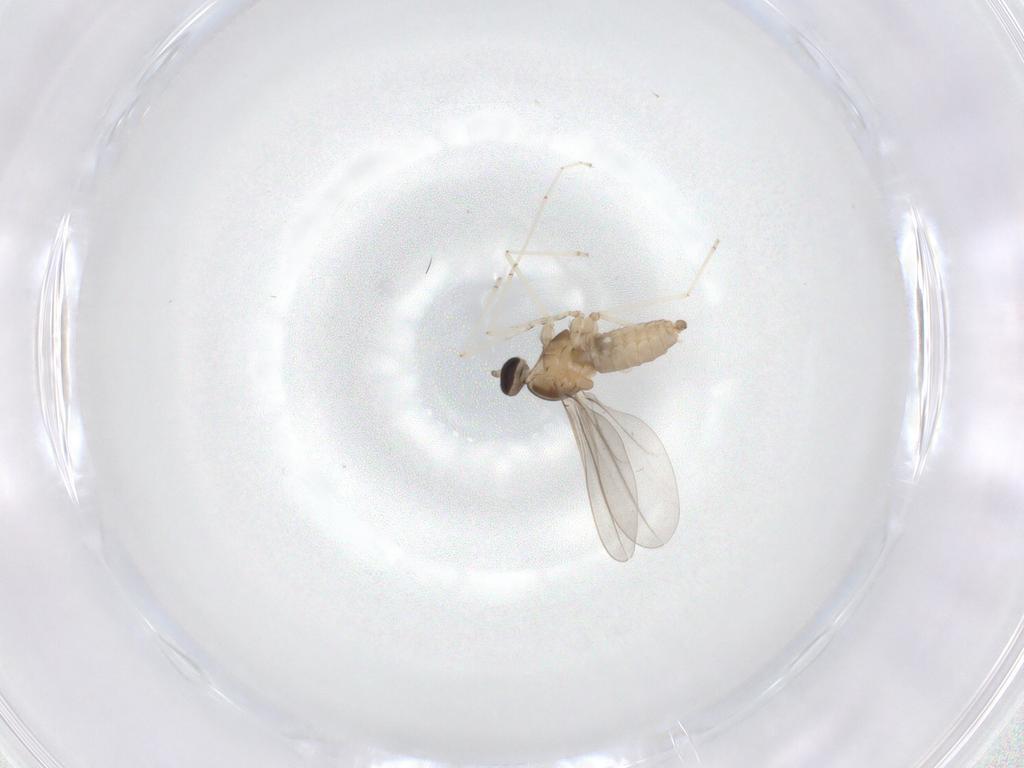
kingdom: Animalia
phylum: Arthropoda
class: Insecta
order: Diptera
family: Cecidomyiidae
